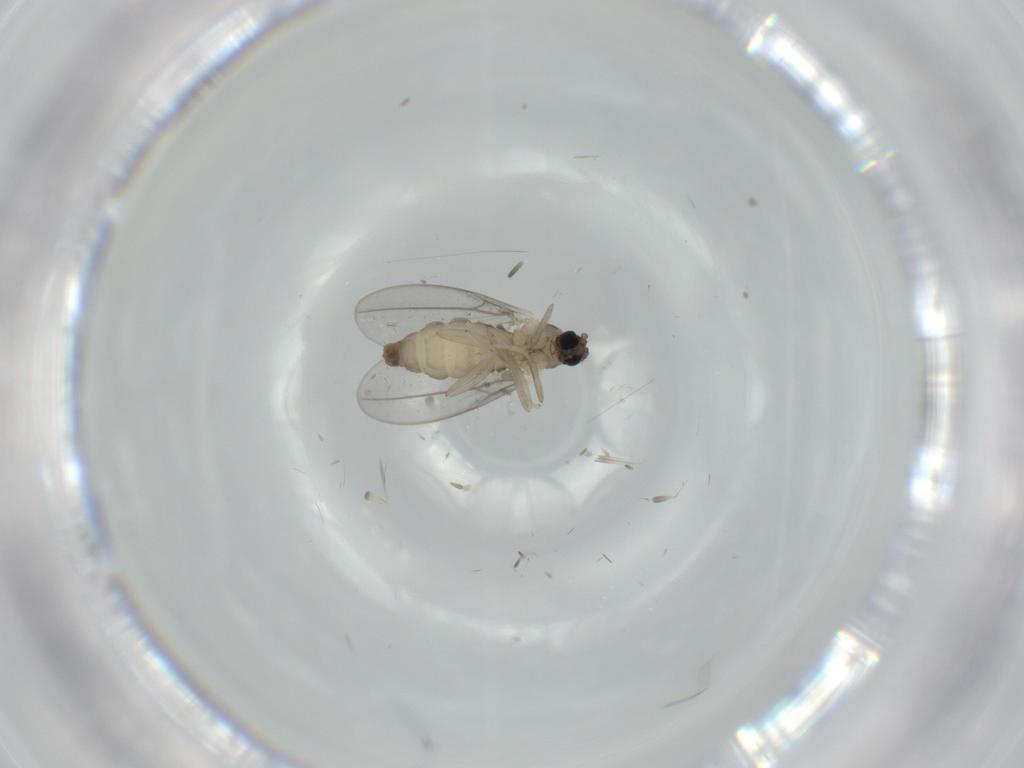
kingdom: Animalia
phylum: Arthropoda
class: Insecta
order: Diptera
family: Cecidomyiidae
